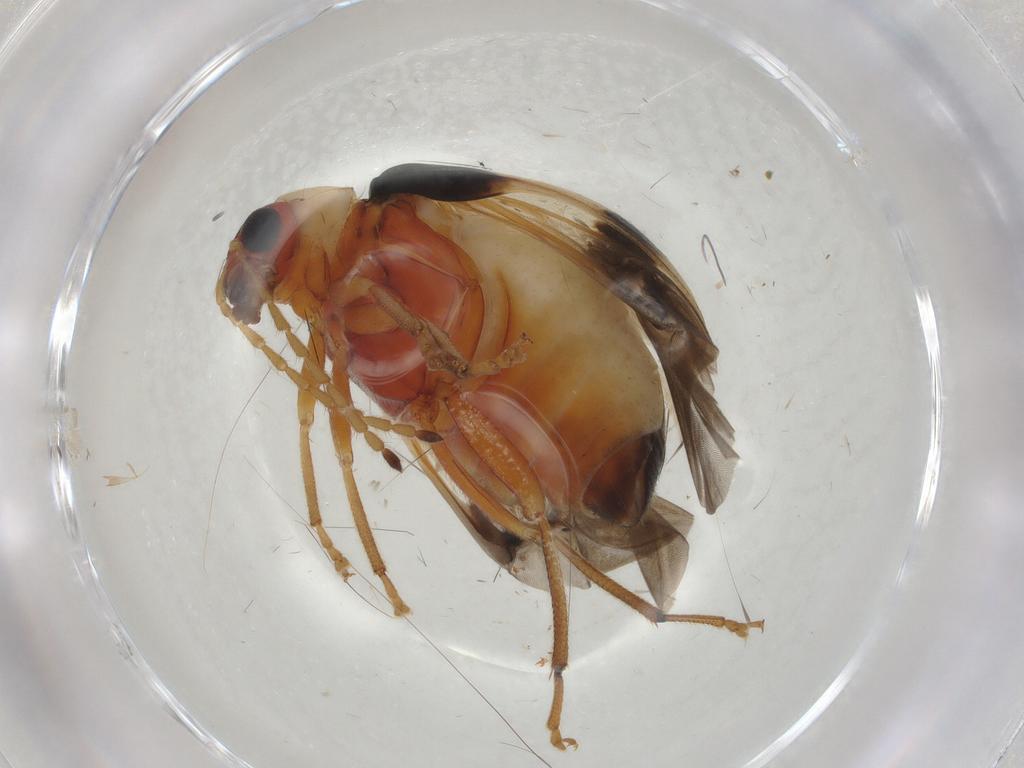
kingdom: Animalia
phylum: Arthropoda
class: Insecta
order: Coleoptera
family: Chrysomelidae
